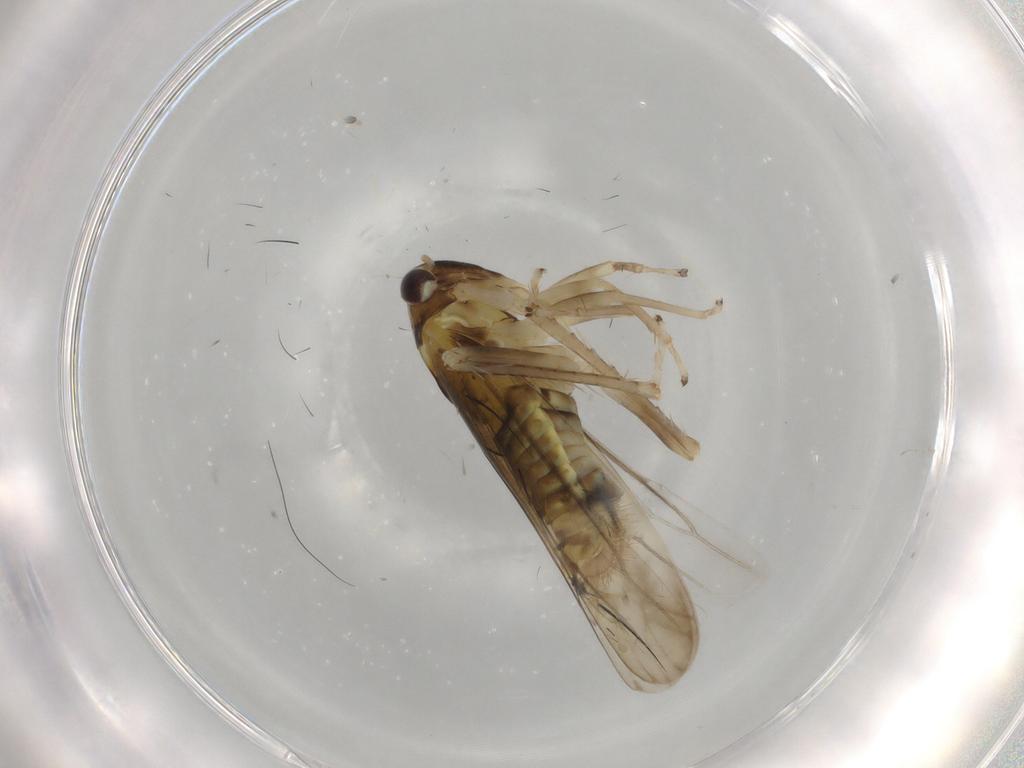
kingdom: Animalia
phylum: Arthropoda
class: Insecta
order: Hemiptera
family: Cicadellidae
